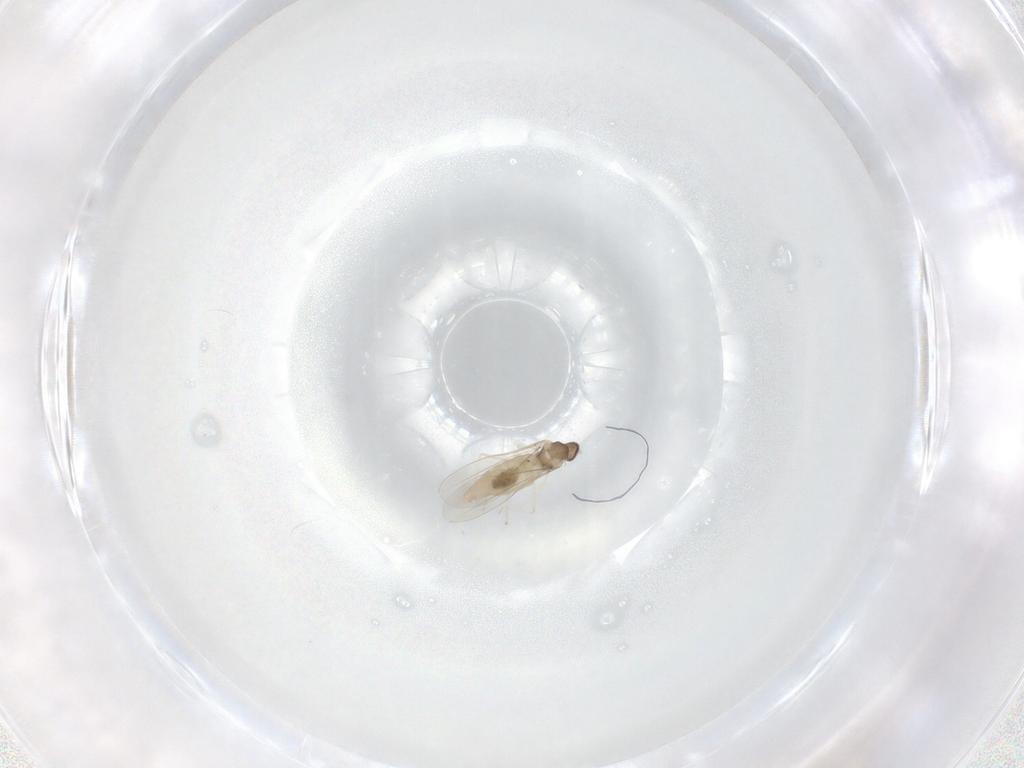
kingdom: Animalia
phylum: Arthropoda
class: Insecta
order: Diptera
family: Cecidomyiidae
